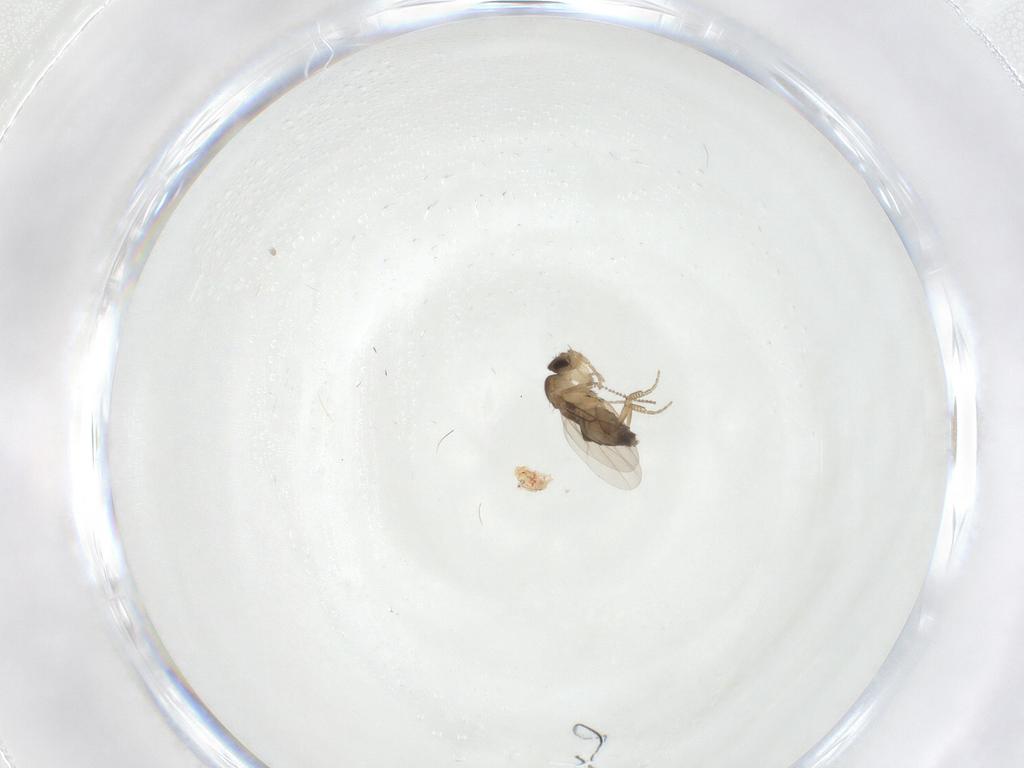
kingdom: Animalia
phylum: Arthropoda
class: Insecta
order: Diptera
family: Phoridae
